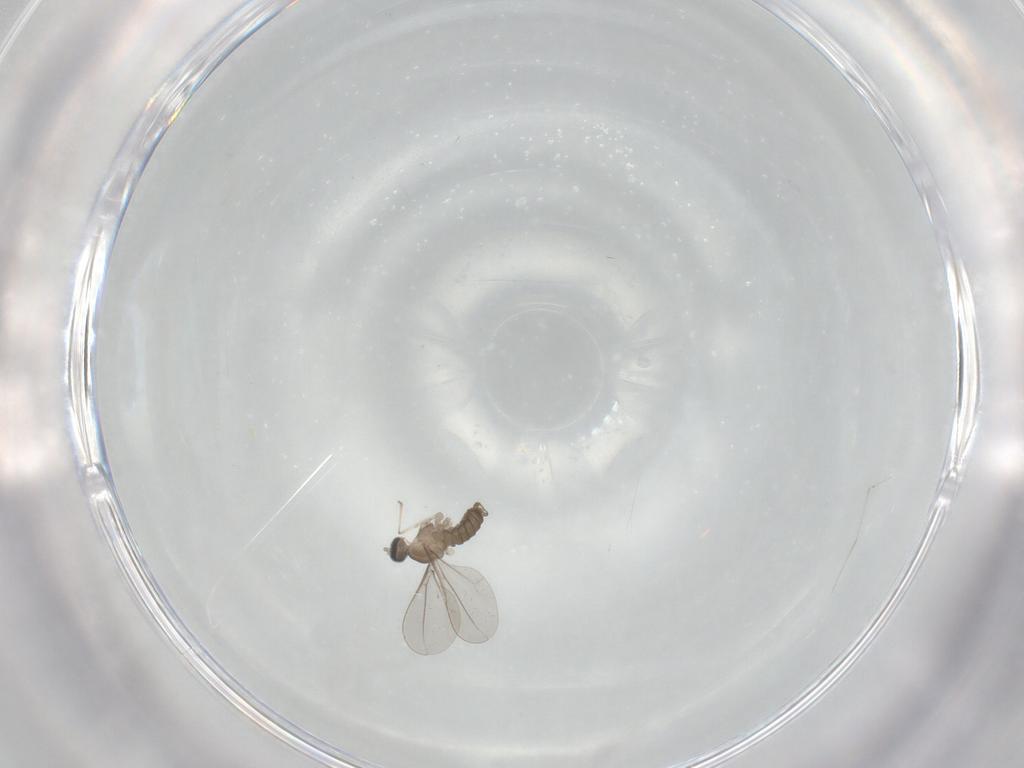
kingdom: Animalia
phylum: Arthropoda
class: Insecta
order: Diptera
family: Cecidomyiidae
